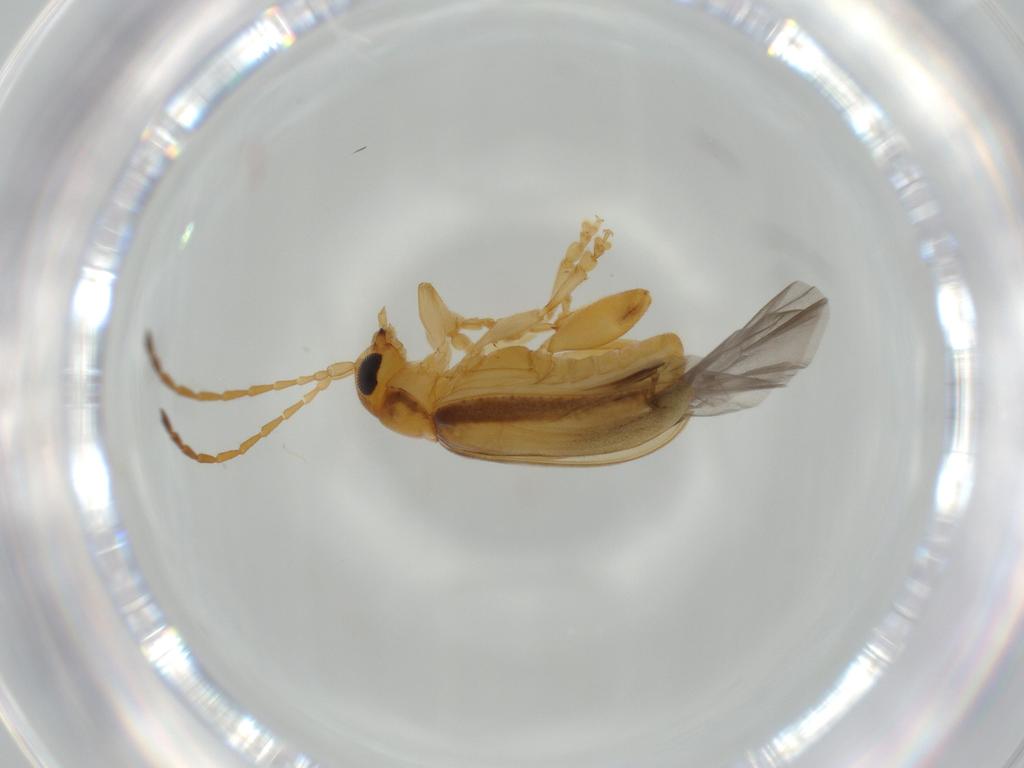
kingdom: Animalia
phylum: Arthropoda
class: Insecta
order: Coleoptera
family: Chrysomelidae
